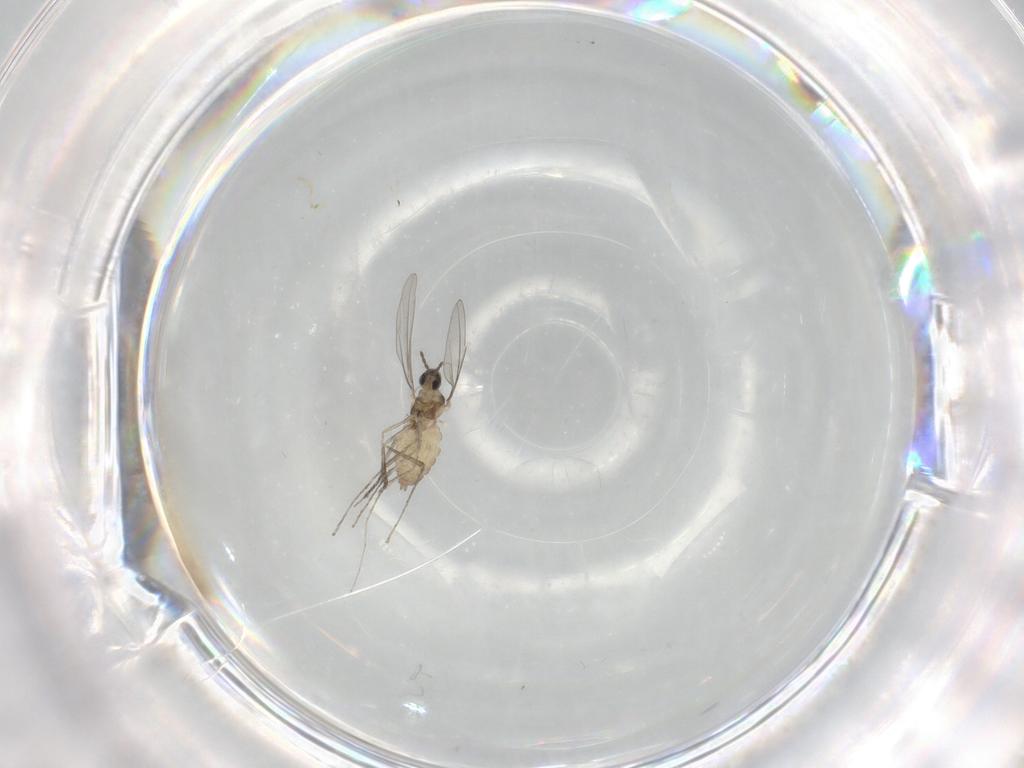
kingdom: Animalia
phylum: Arthropoda
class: Insecta
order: Diptera
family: Cecidomyiidae
